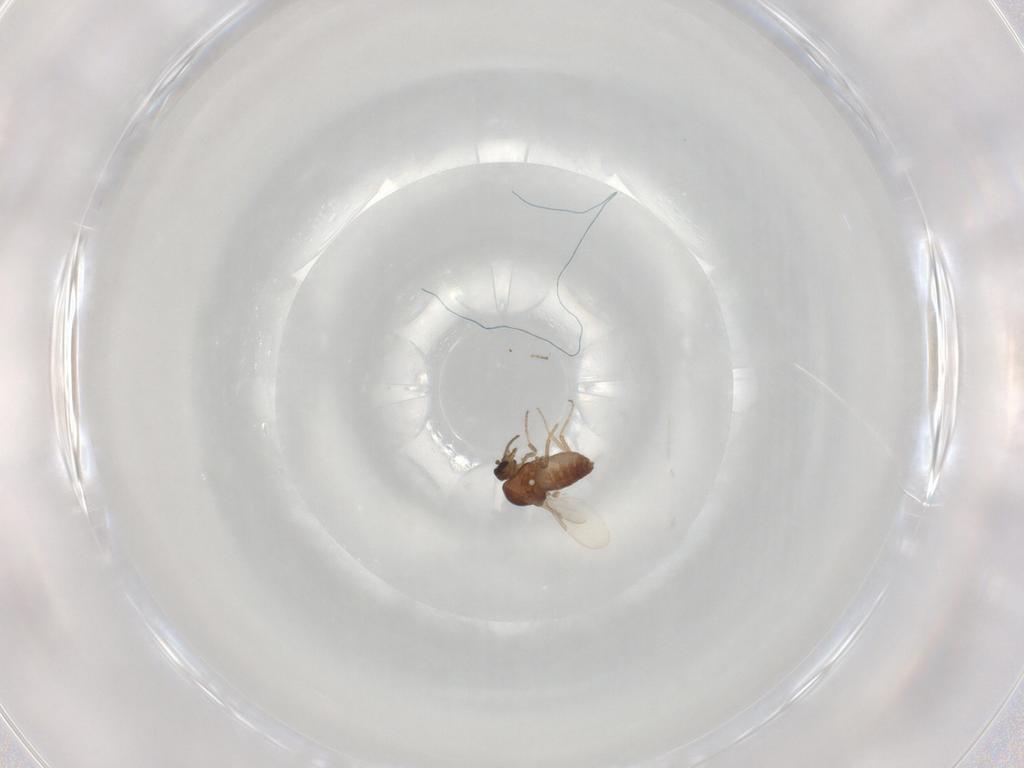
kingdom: Animalia
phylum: Arthropoda
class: Insecta
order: Diptera
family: Ceratopogonidae
